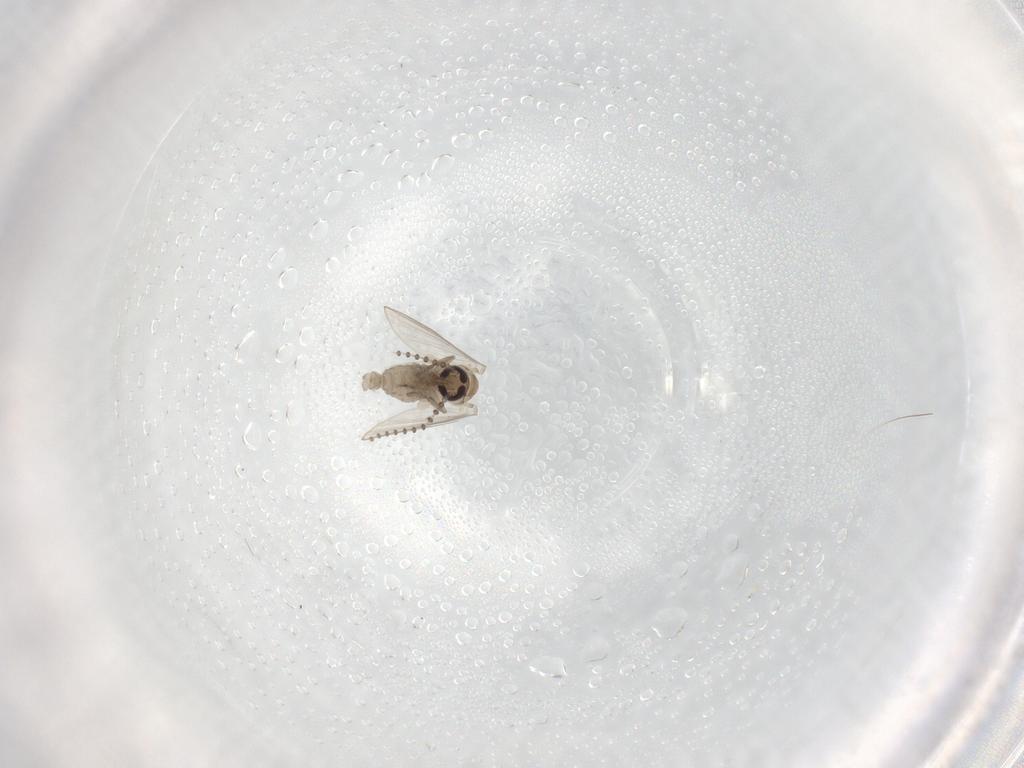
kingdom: Animalia
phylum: Arthropoda
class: Insecta
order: Diptera
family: Psychodidae
